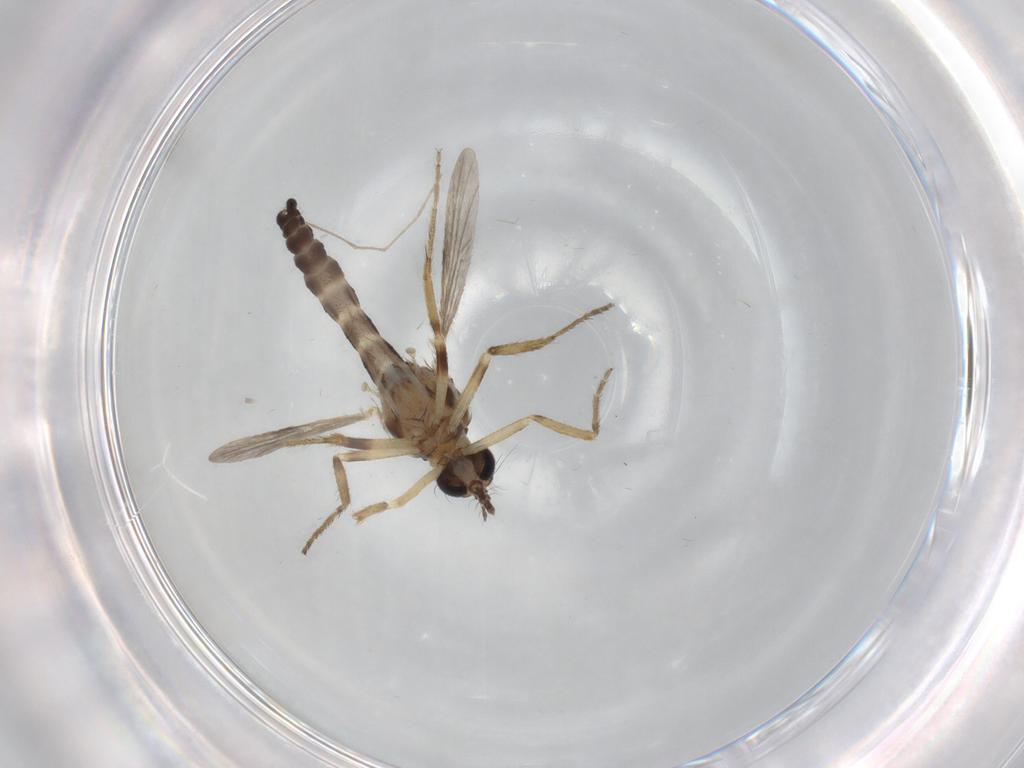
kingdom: Animalia
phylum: Arthropoda
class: Insecta
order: Diptera
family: Ceratopogonidae
